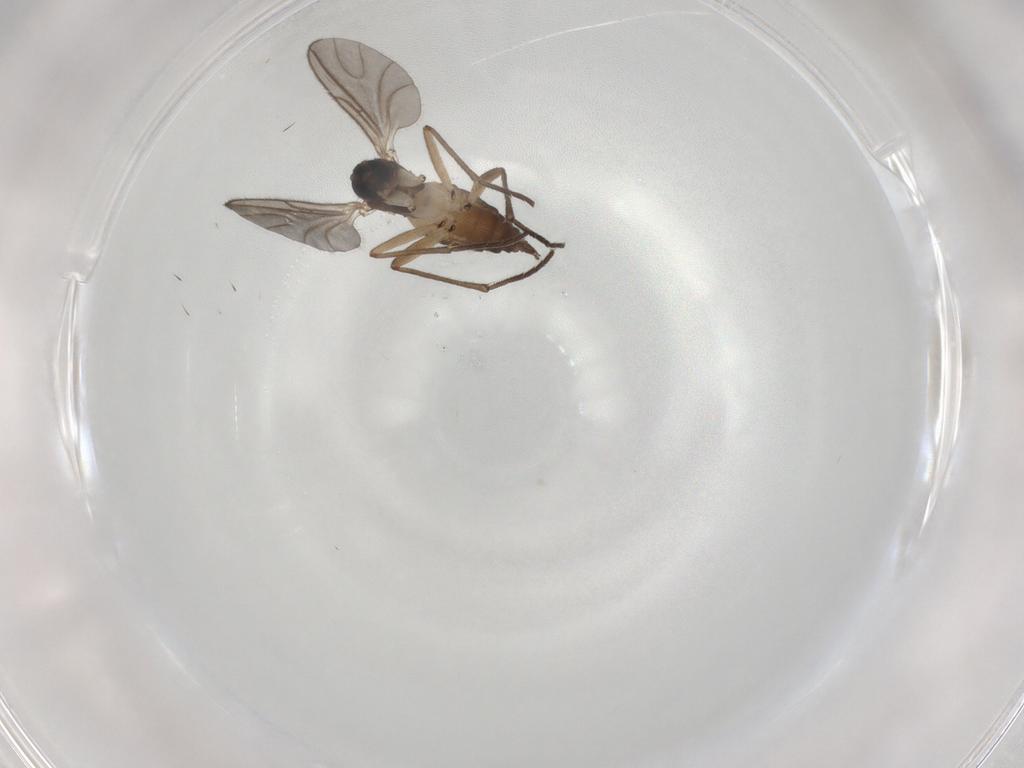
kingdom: Animalia
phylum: Arthropoda
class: Insecta
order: Diptera
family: Sciaridae
